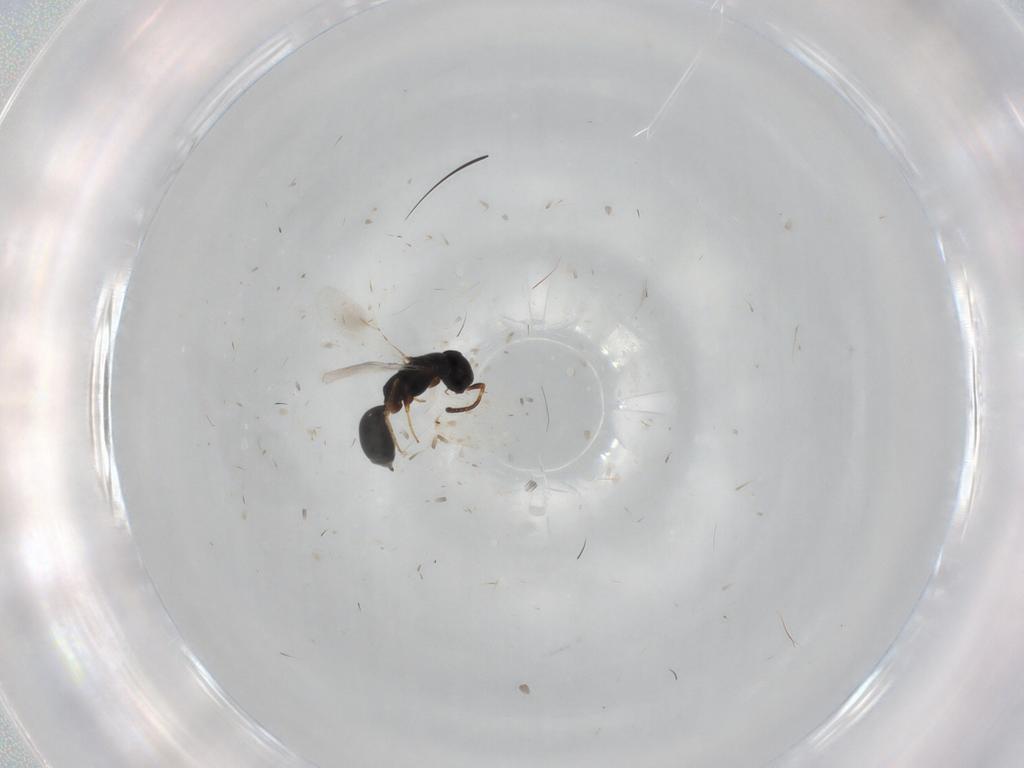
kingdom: Animalia
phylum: Arthropoda
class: Insecta
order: Hymenoptera
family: Bethylidae
